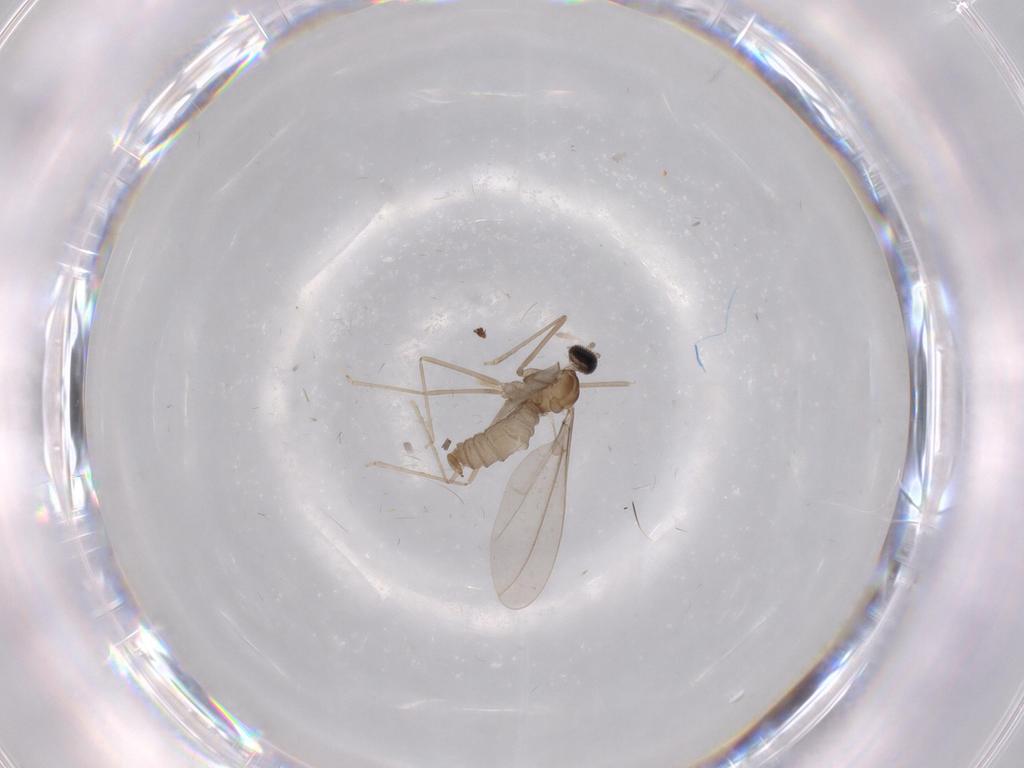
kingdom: Animalia
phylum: Arthropoda
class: Insecta
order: Diptera
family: Cecidomyiidae
